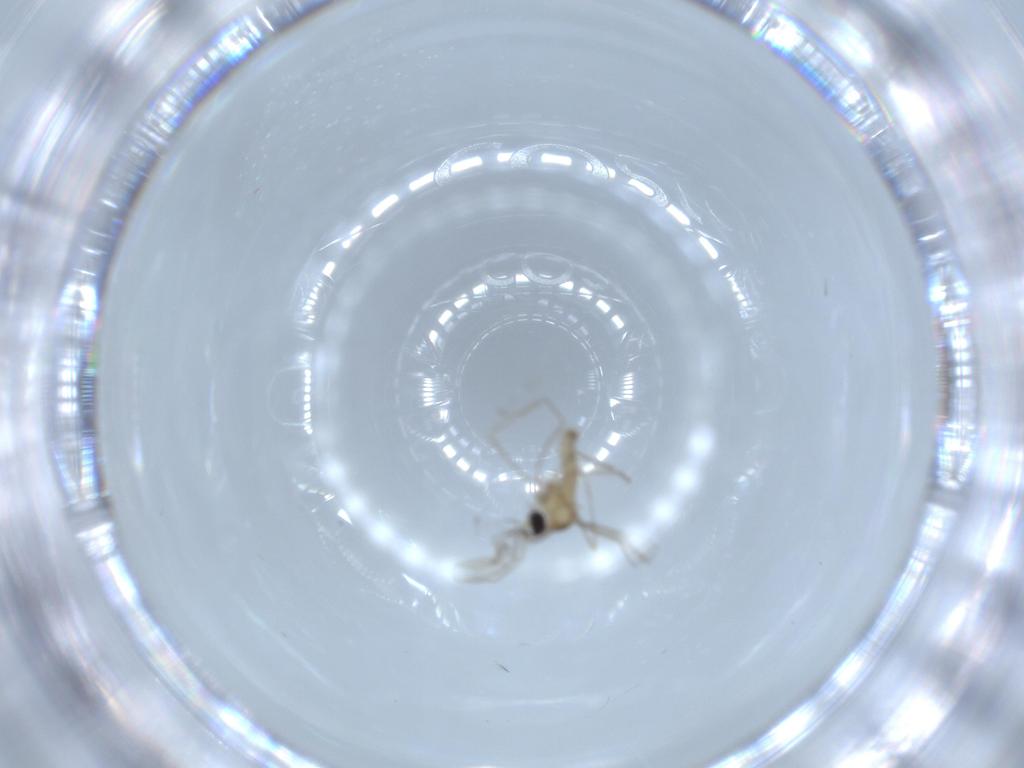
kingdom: Animalia
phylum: Arthropoda
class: Insecta
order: Diptera
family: Cecidomyiidae
